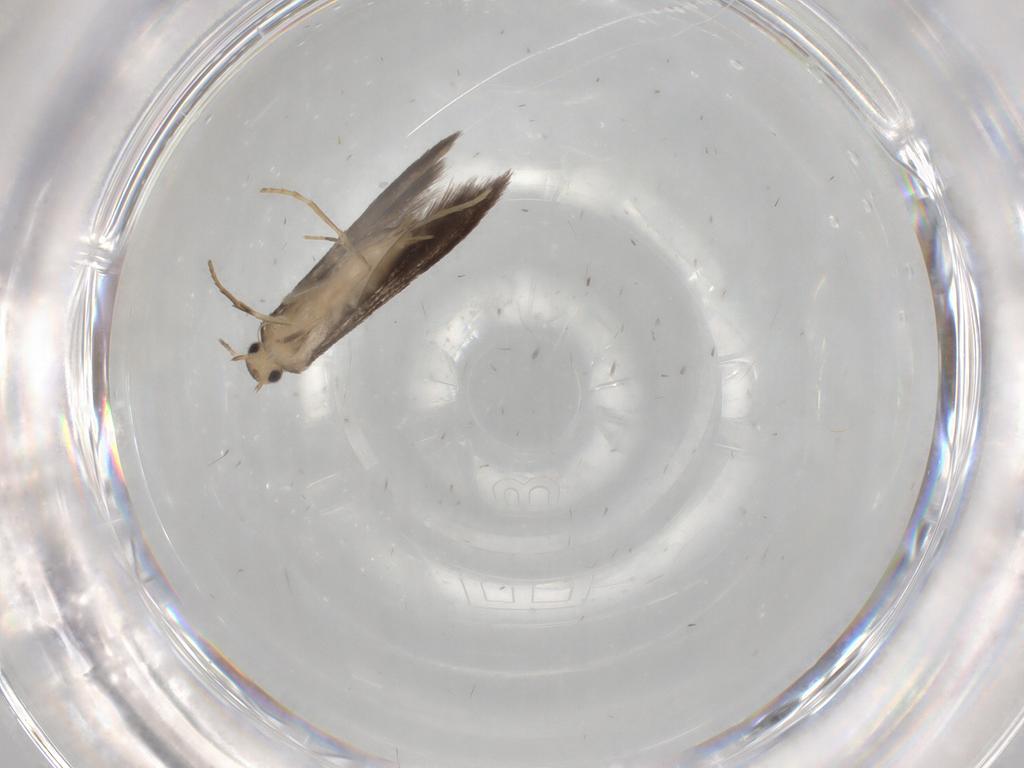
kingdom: Animalia
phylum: Arthropoda
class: Insecta
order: Lepidoptera
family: Schreckensteiniidae
